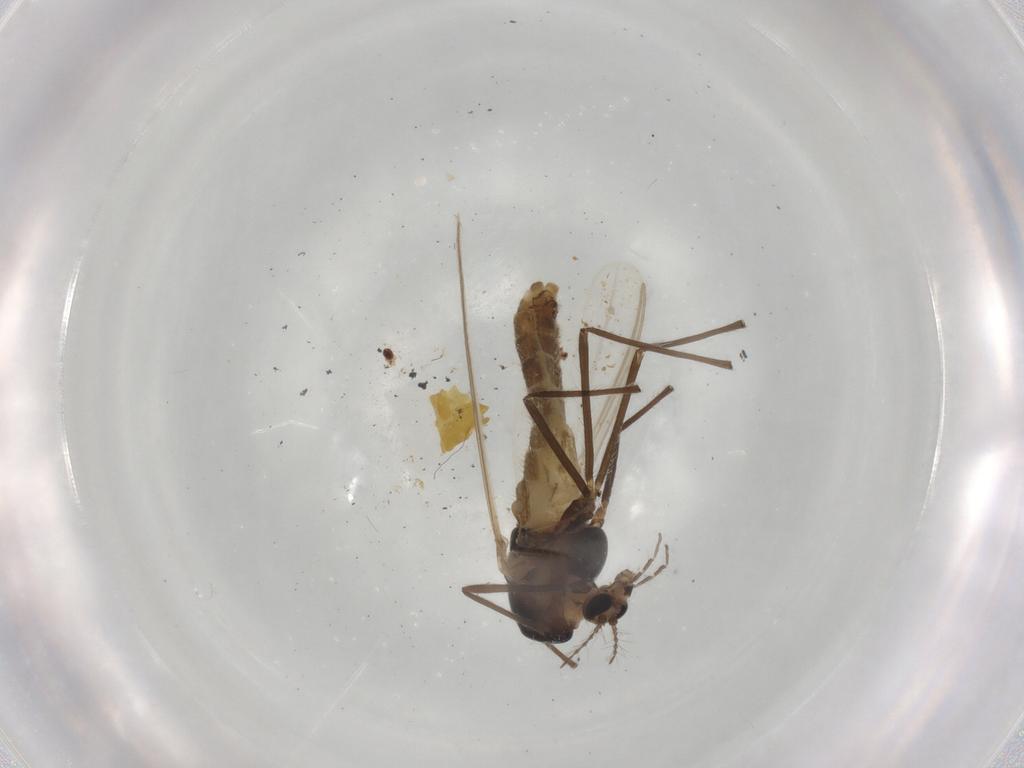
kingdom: Animalia
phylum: Arthropoda
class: Insecta
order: Diptera
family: Chironomidae
